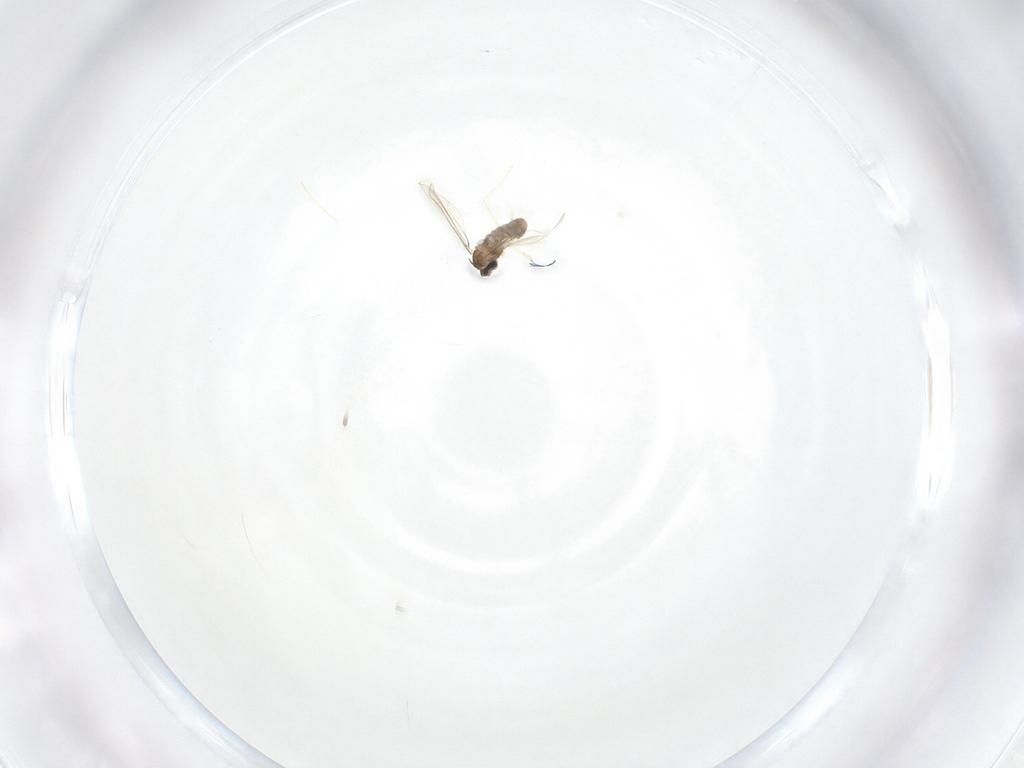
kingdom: Animalia
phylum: Arthropoda
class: Insecta
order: Diptera
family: Cecidomyiidae
